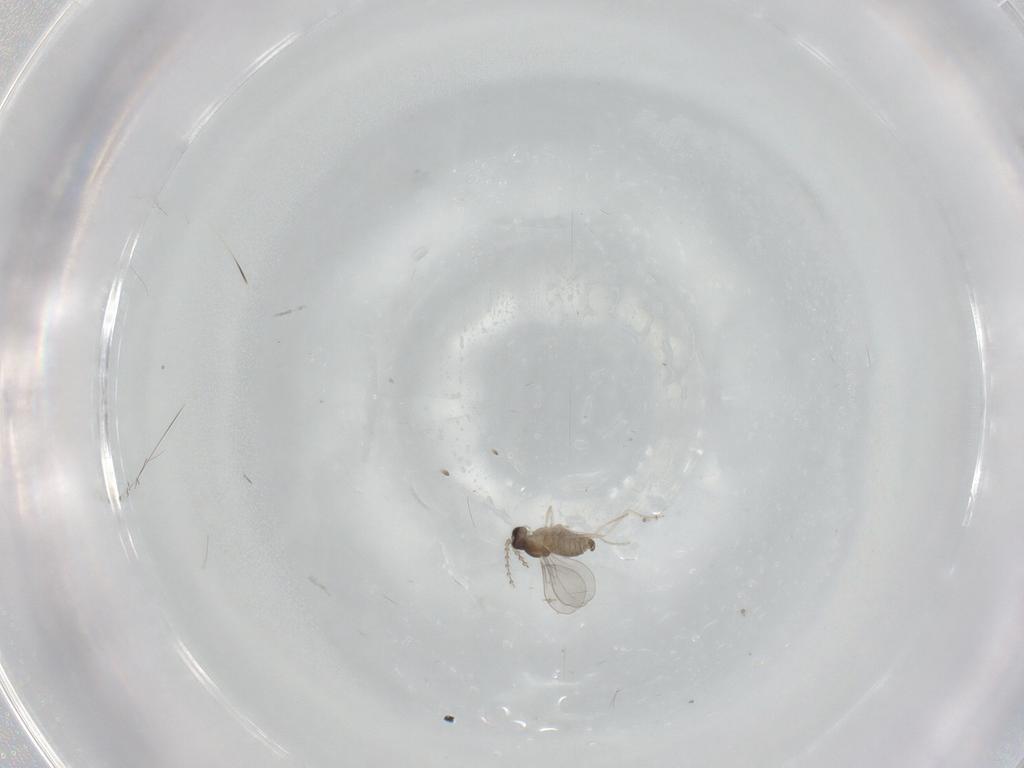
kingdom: Animalia
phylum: Arthropoda
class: Insecta
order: Diptera
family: Cecidomyiidae
